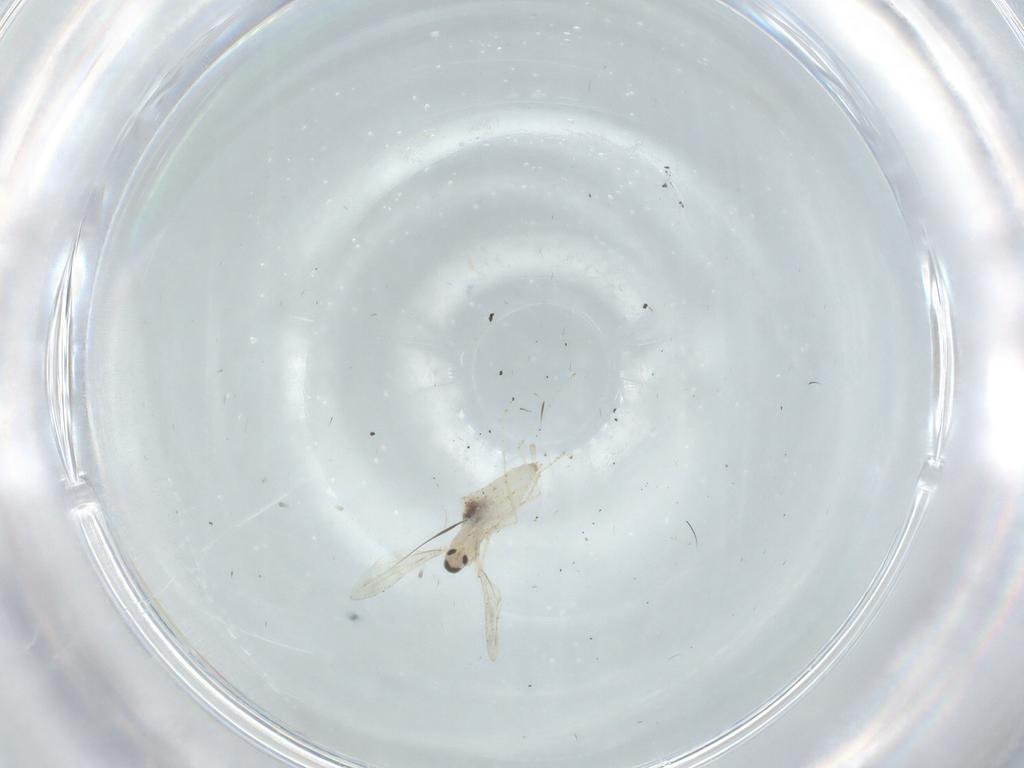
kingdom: Animalia
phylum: Arthropoda
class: Insecta
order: Diptera
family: Cecidomyiidae
